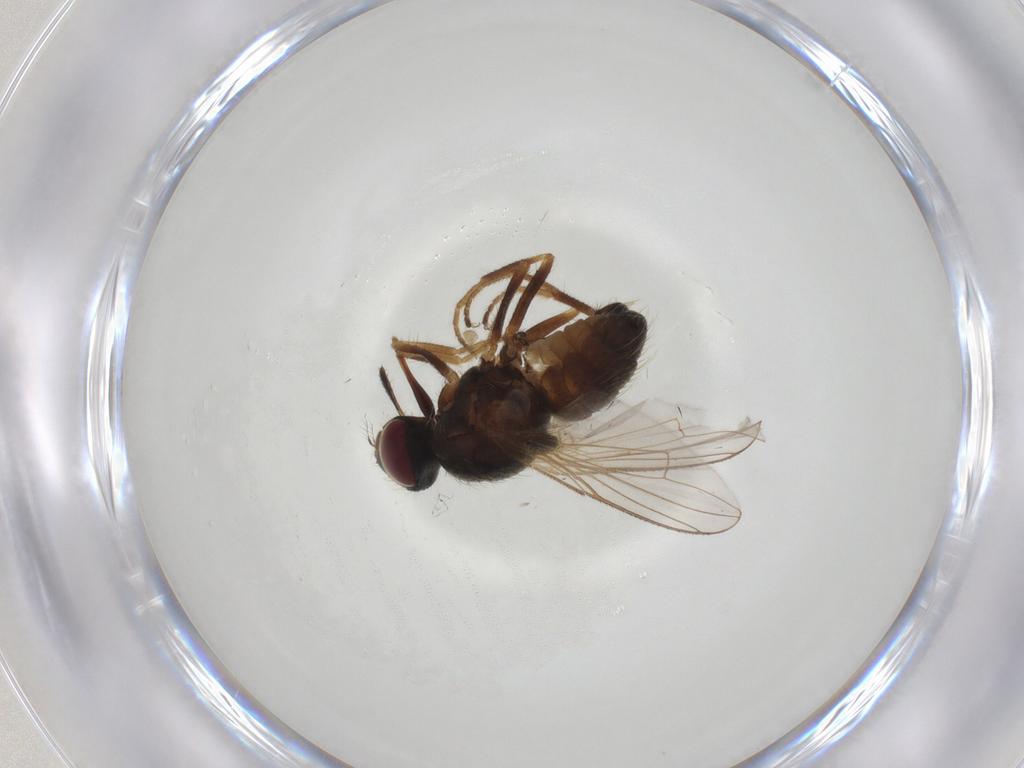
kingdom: Animalia
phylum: Arthropoda
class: Insecta
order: Diptera
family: Muscidae
